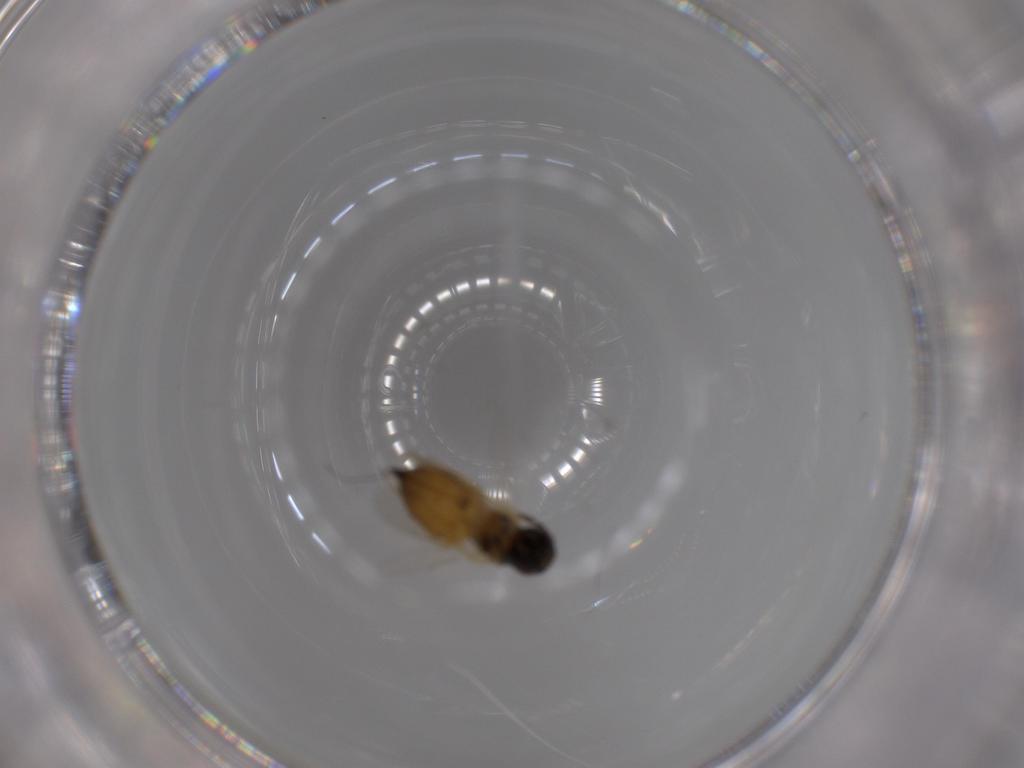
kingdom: Animalia
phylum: Arthropoda
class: Insecta
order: Hymenoptera
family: Eulophidae
